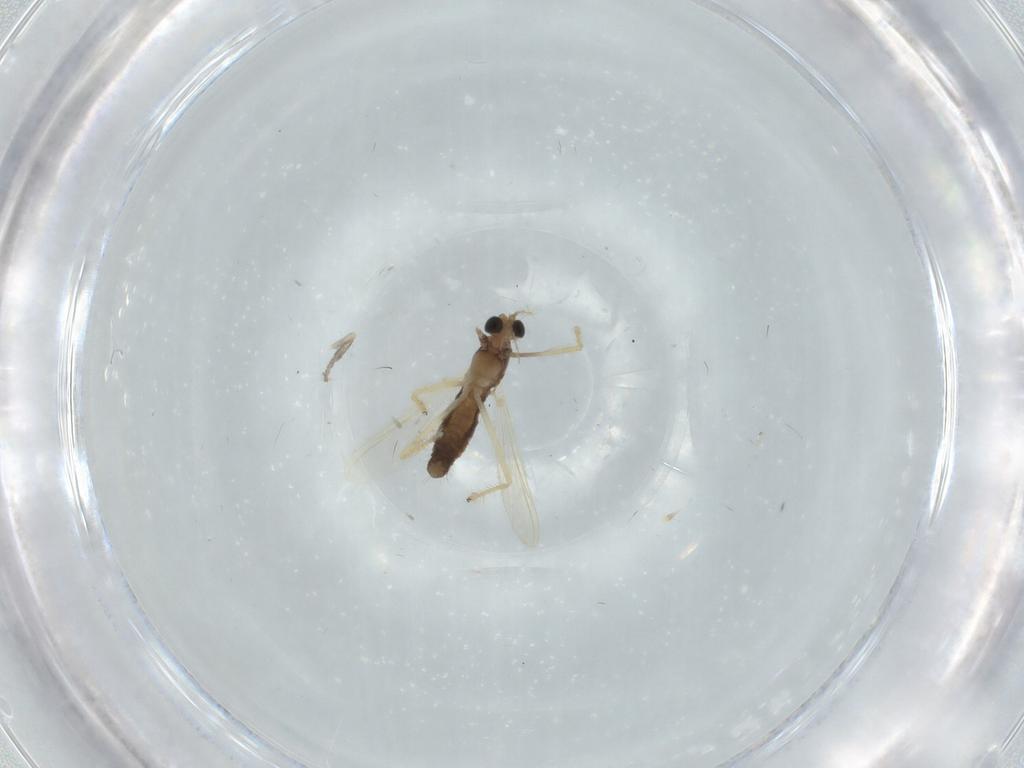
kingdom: Animalia
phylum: Arthropoda
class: Insecta
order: Diptera
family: Chironomidae
